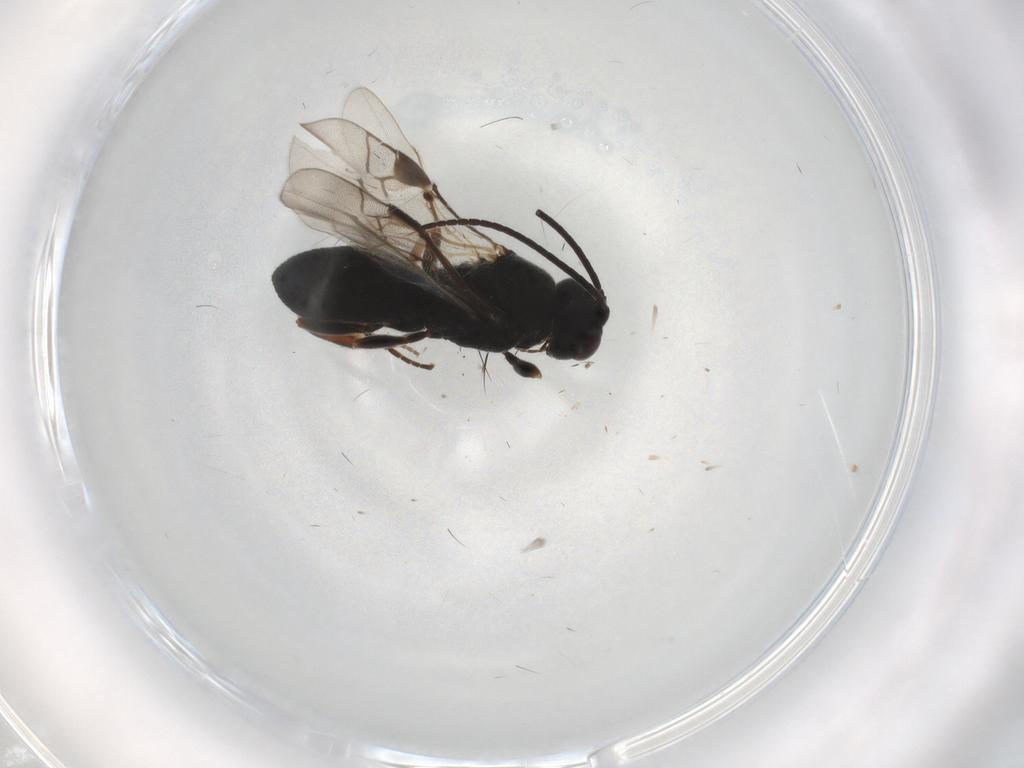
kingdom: Animalia
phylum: Arthropoda
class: Insecta
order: Hymenoptera
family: Braconidae
